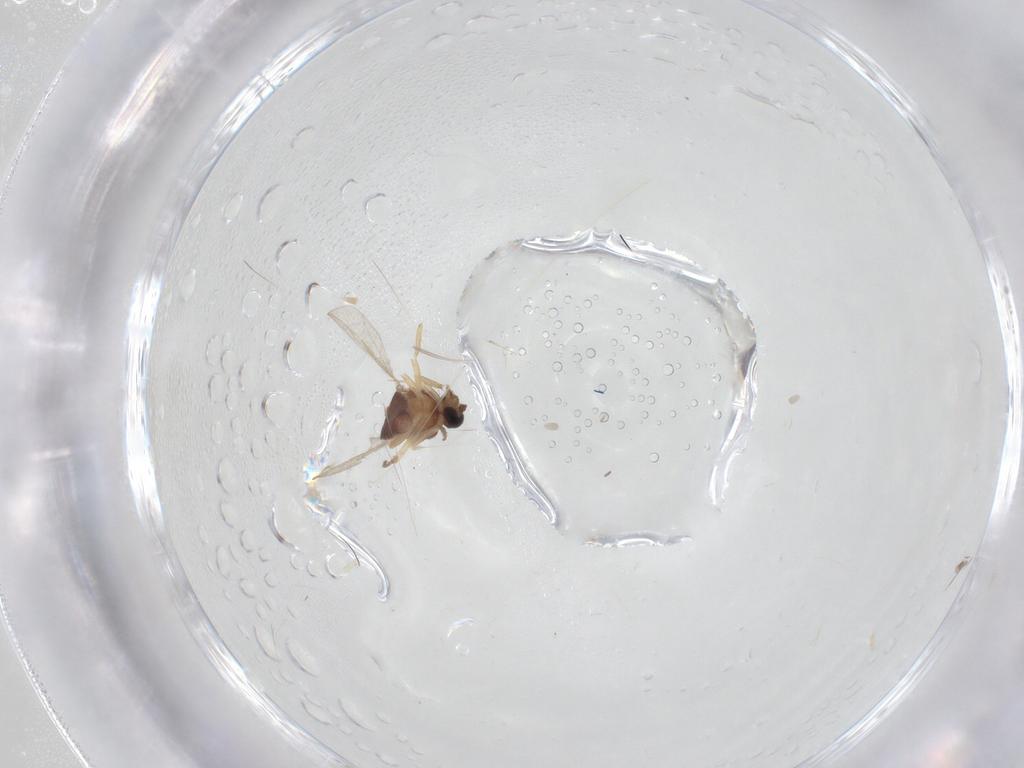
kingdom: Animalia
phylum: Arthropoda
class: Insecta
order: Diptera
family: Ceratopogonidae
